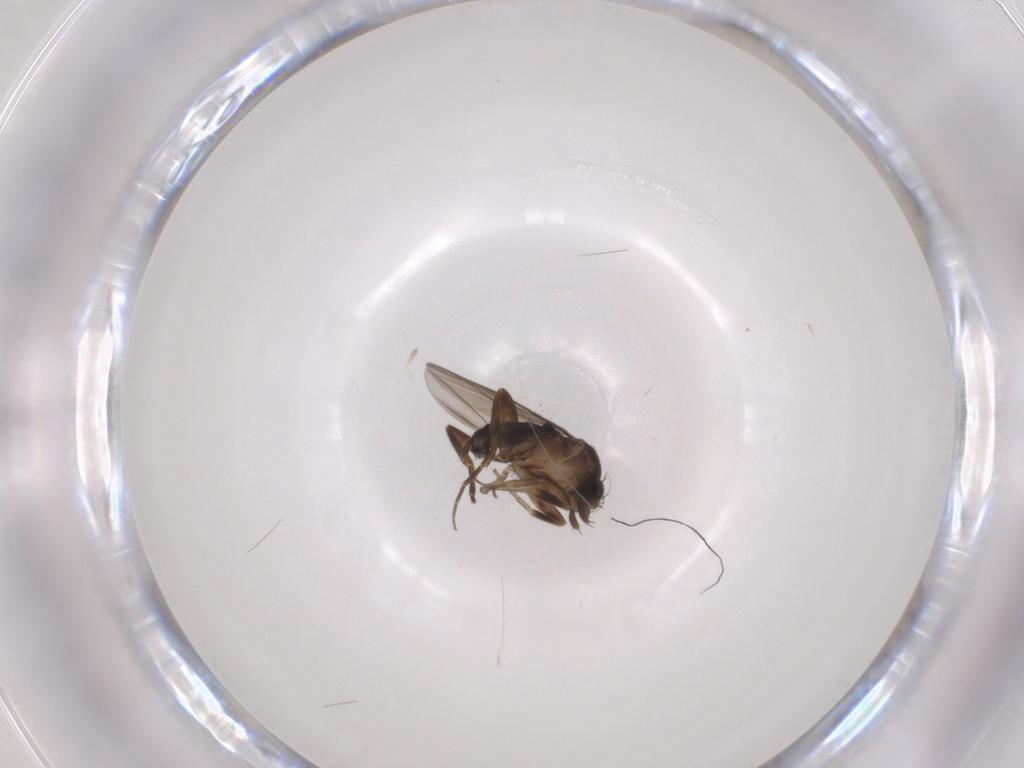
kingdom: Animalia
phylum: Arthropoda
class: Insecta
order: Diptera
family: Phoridae
